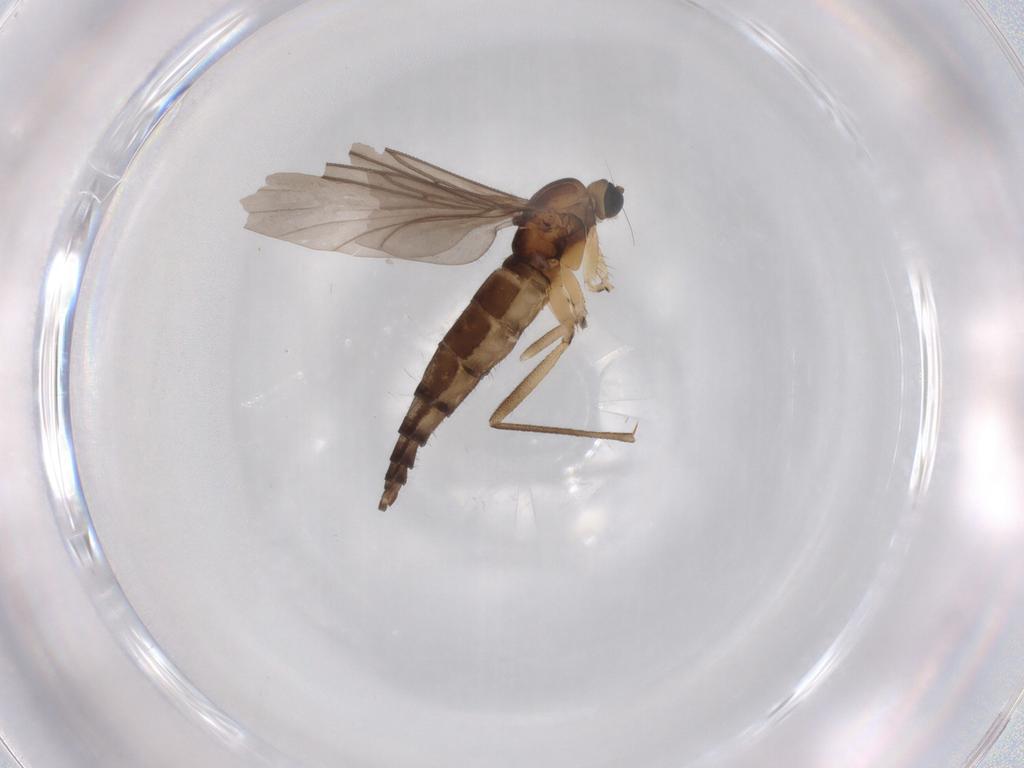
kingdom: Animalia
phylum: Arthropoda
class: Insecta
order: Diptera
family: Sciaridae
